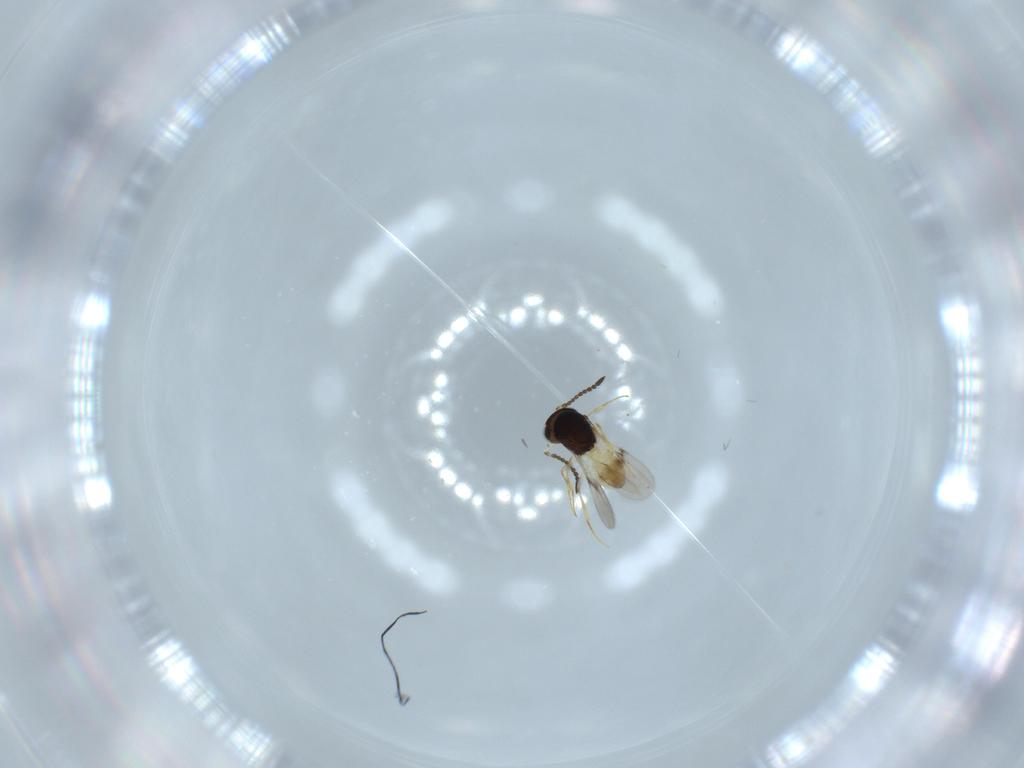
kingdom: Animalia
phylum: Arthropoda
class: Insecta
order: Hymenoptera
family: Scelionidae
